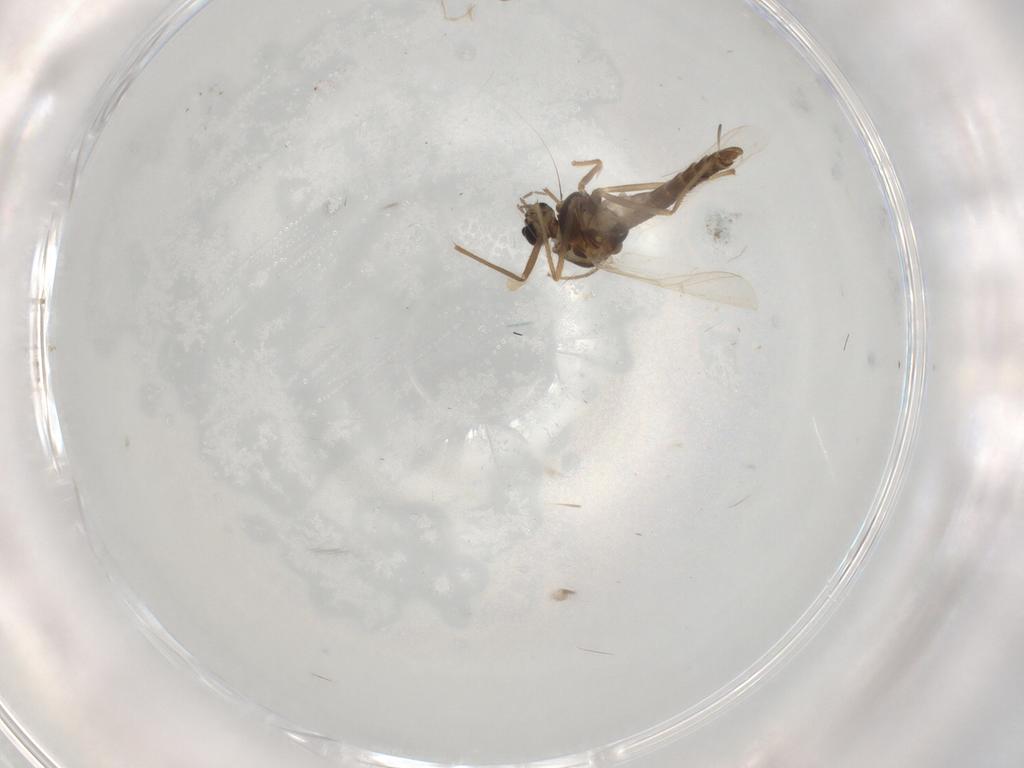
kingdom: Animalia
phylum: Arthropoda
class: Insecta
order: Diptera
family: Chironomidae
